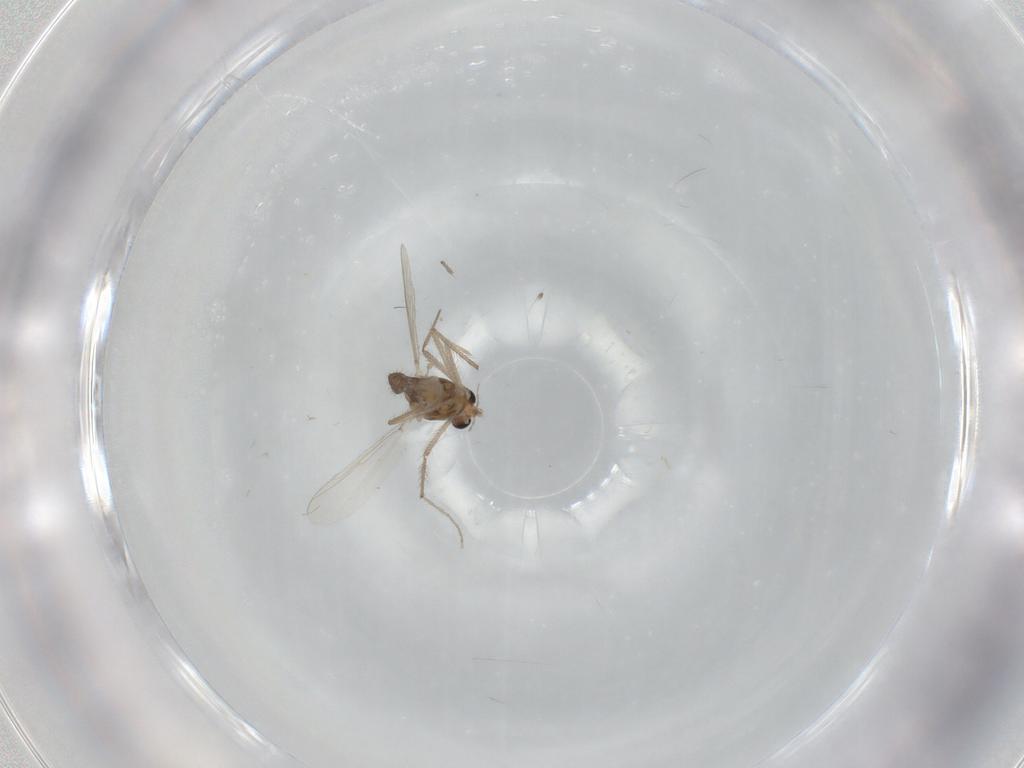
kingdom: Animalia
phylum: Arthropoda
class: Insecta
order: Diptera
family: Chironomidae
